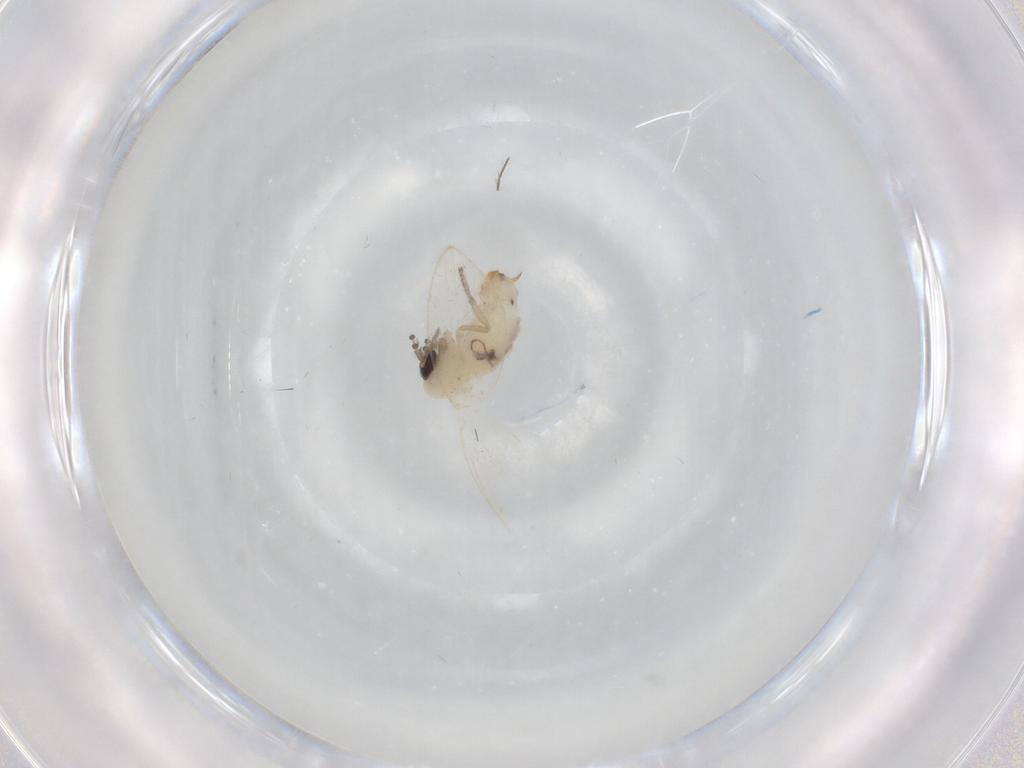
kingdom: Animalia
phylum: Arthropoda
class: Insecta
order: Diptera
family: Psychodidae
